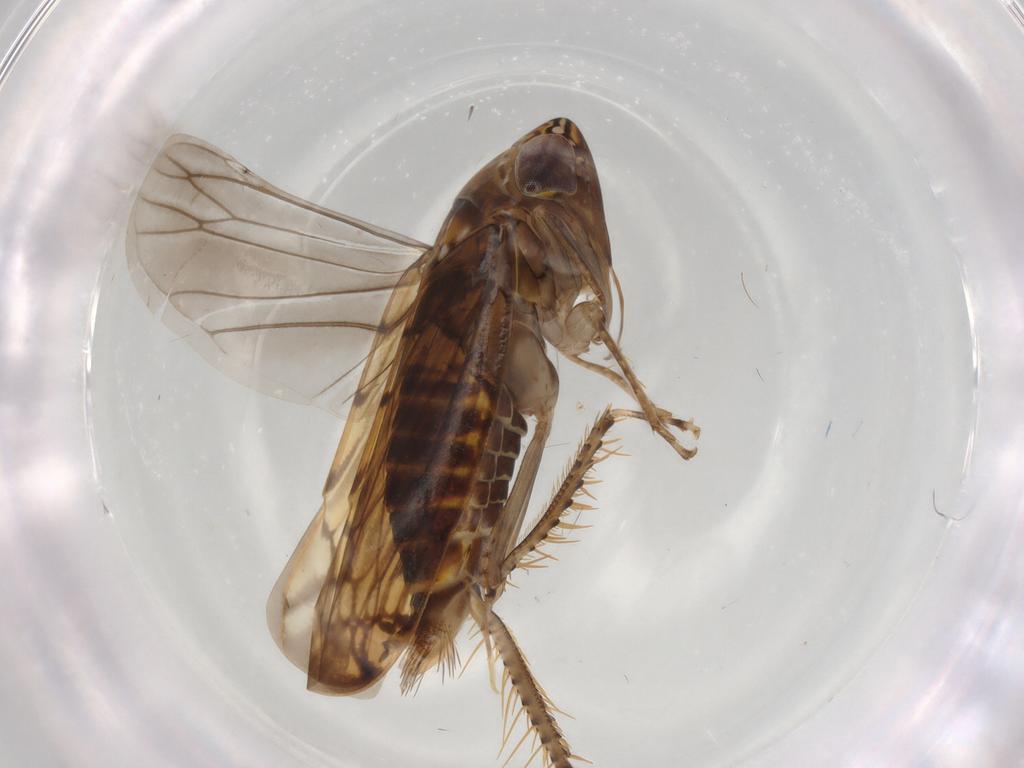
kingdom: Animalia
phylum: Arthropoda
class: Insecta
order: Hemiptera
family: Cicadellidae
